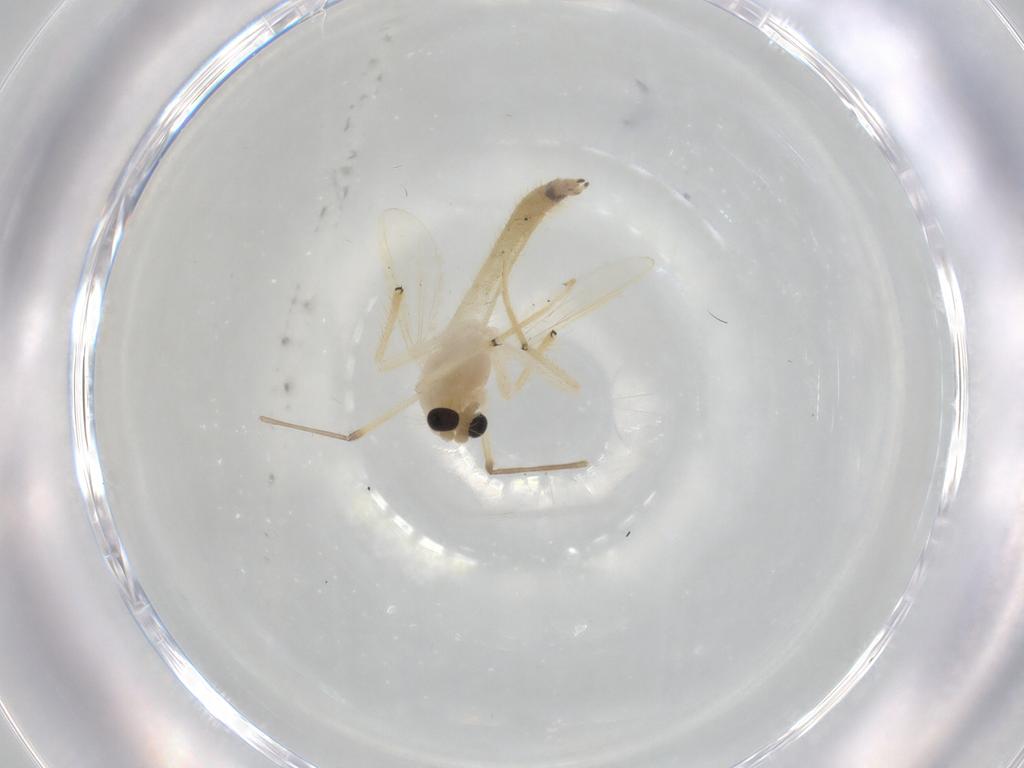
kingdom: Animalia
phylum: Arthropoda
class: Insecta
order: Diptera
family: Chironomidae
